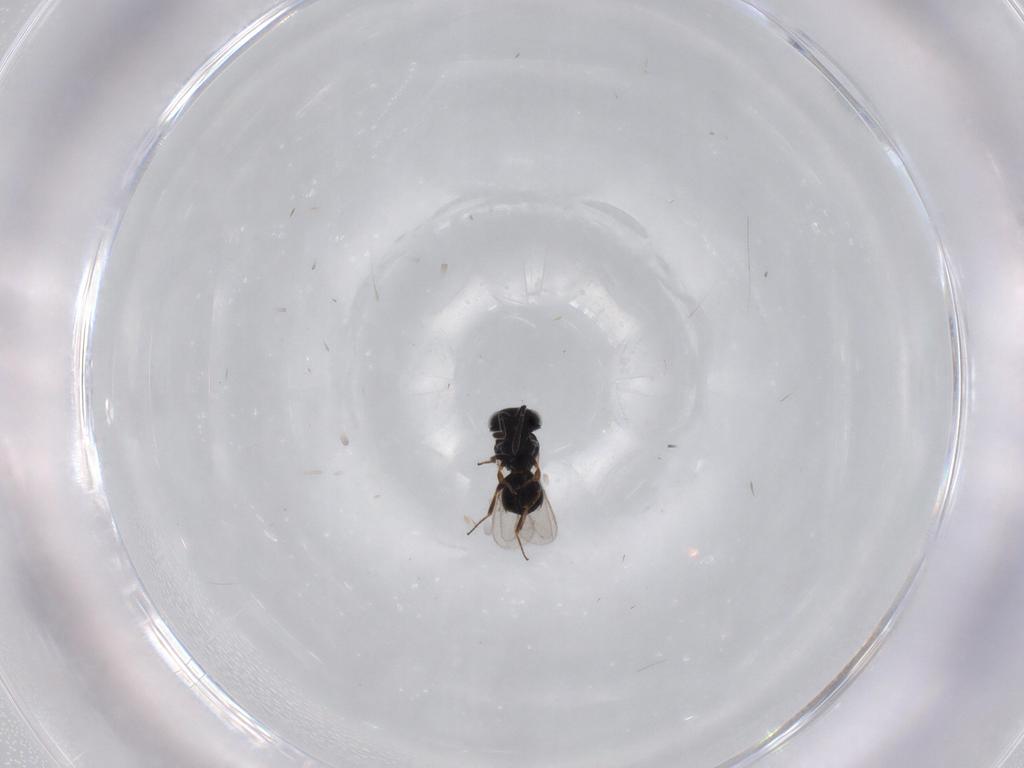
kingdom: Animalia
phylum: Arthropoda
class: Insecta
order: Hymenoptera
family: Scelionidae
